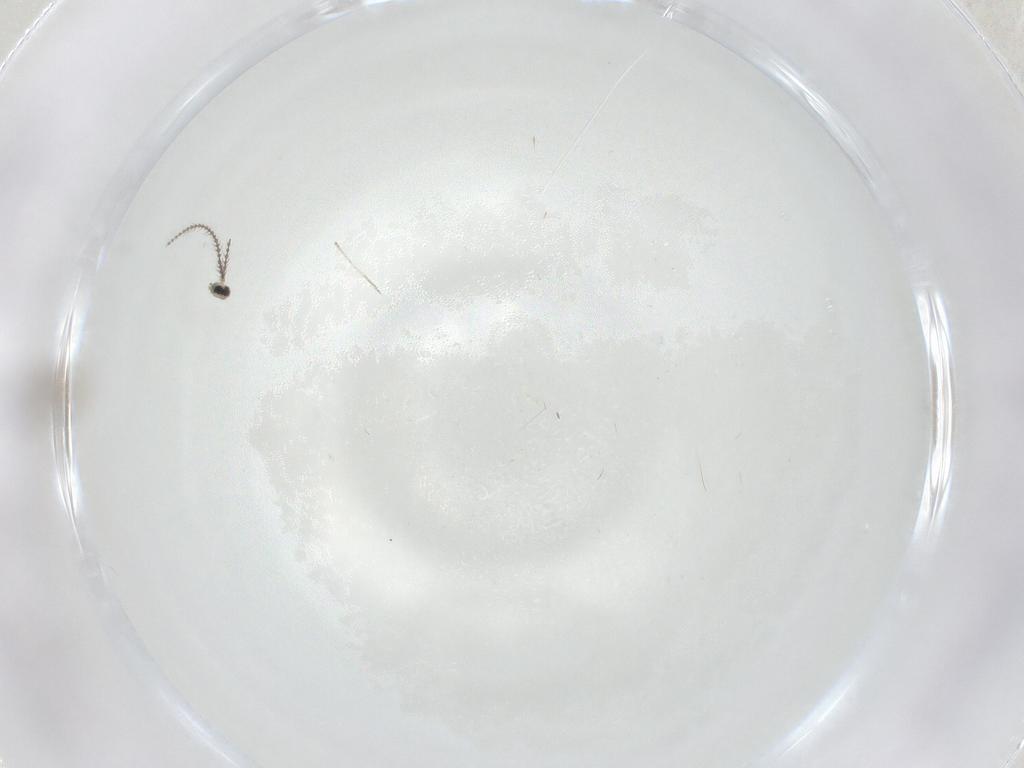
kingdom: Animalia
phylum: Arthropoda
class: Insecta
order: Diptera
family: Cecidomyiidae
